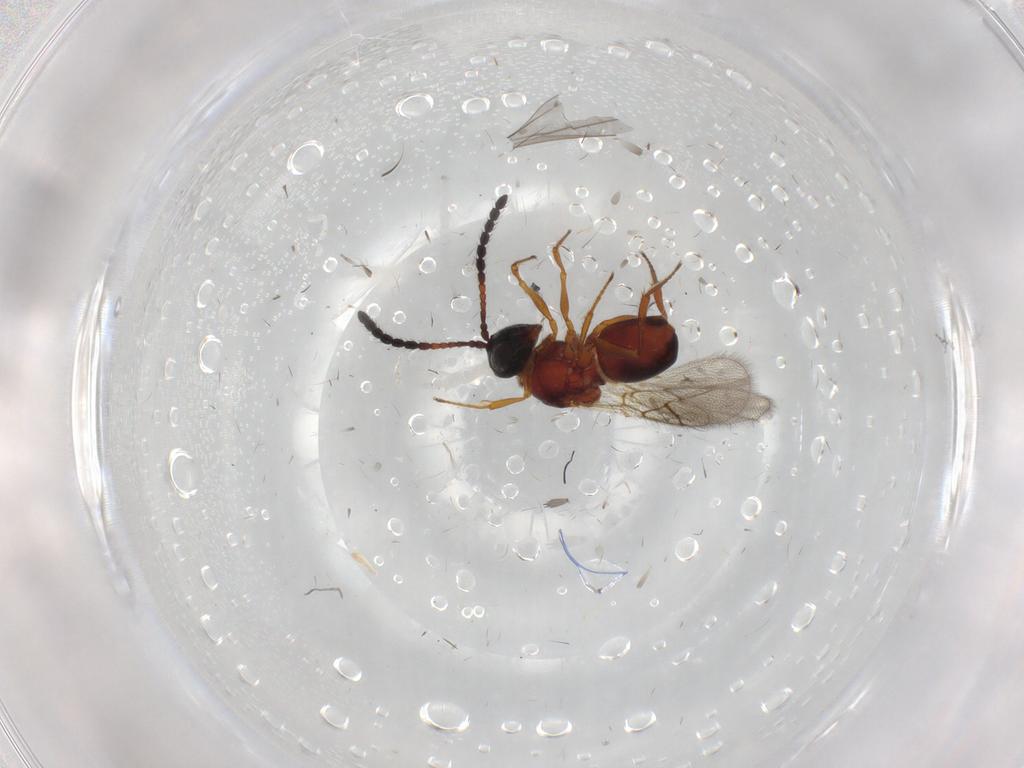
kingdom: Animalia
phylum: Arthropoda
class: Insecta
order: Hymenoptera
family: Figitidae
